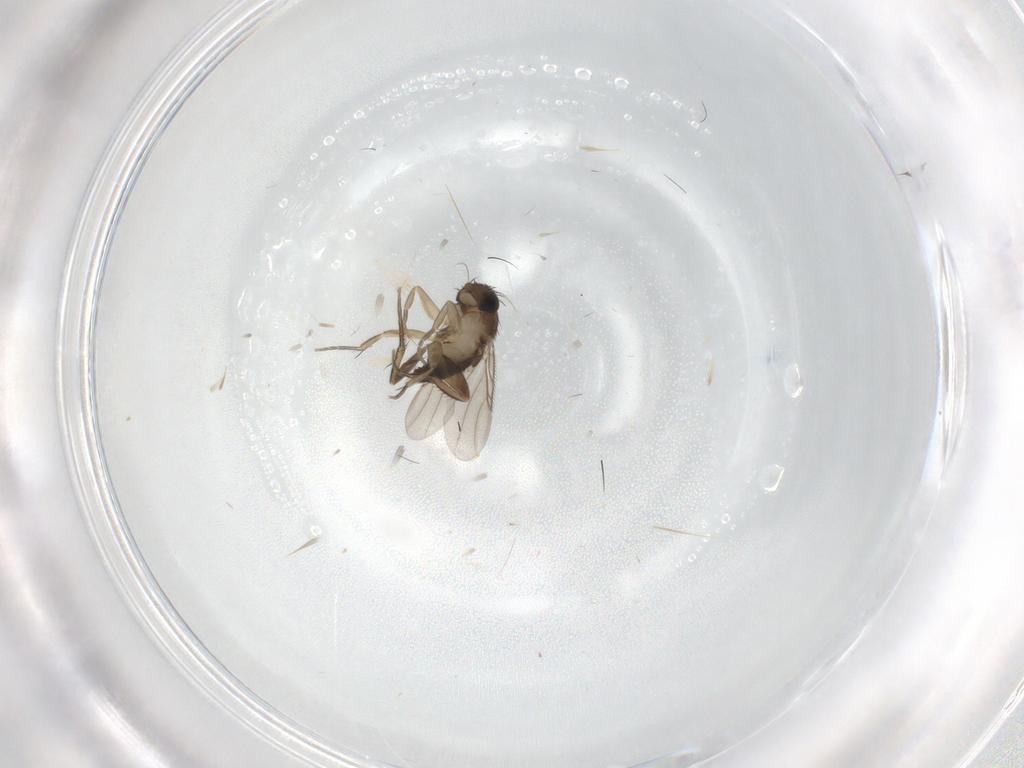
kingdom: Animalia
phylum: Arthropoda
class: Insecta
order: Diptera
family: Phoridae
